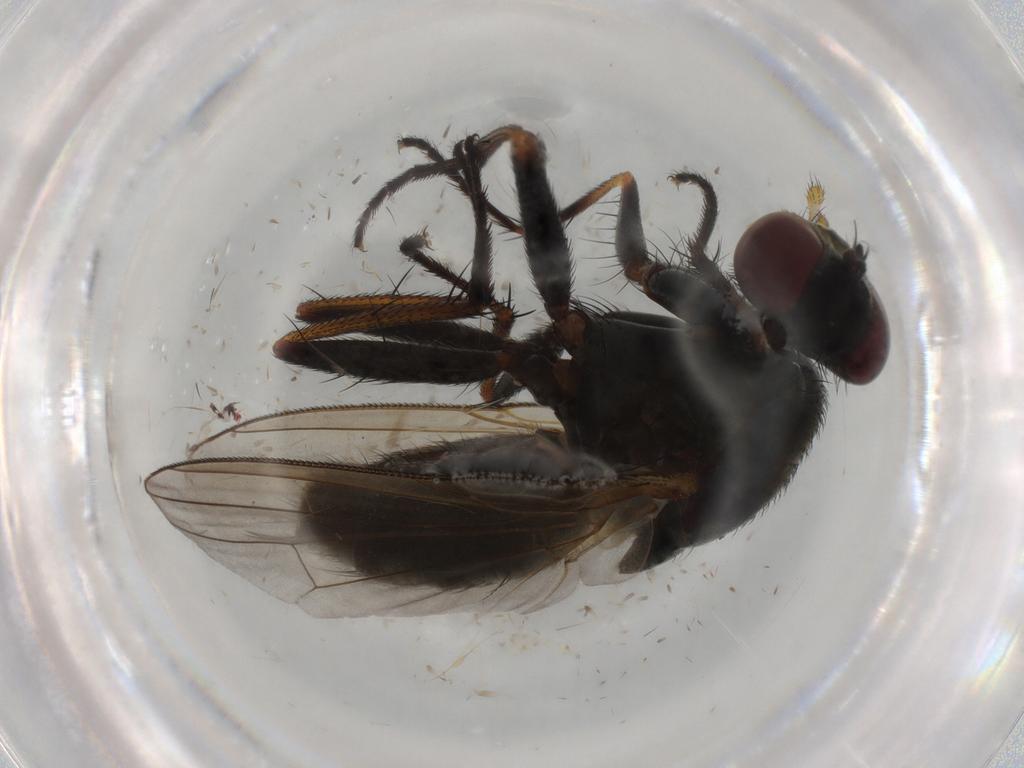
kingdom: Animalia
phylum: Arthropoda
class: Insecta
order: Diptera
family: Muscidae
